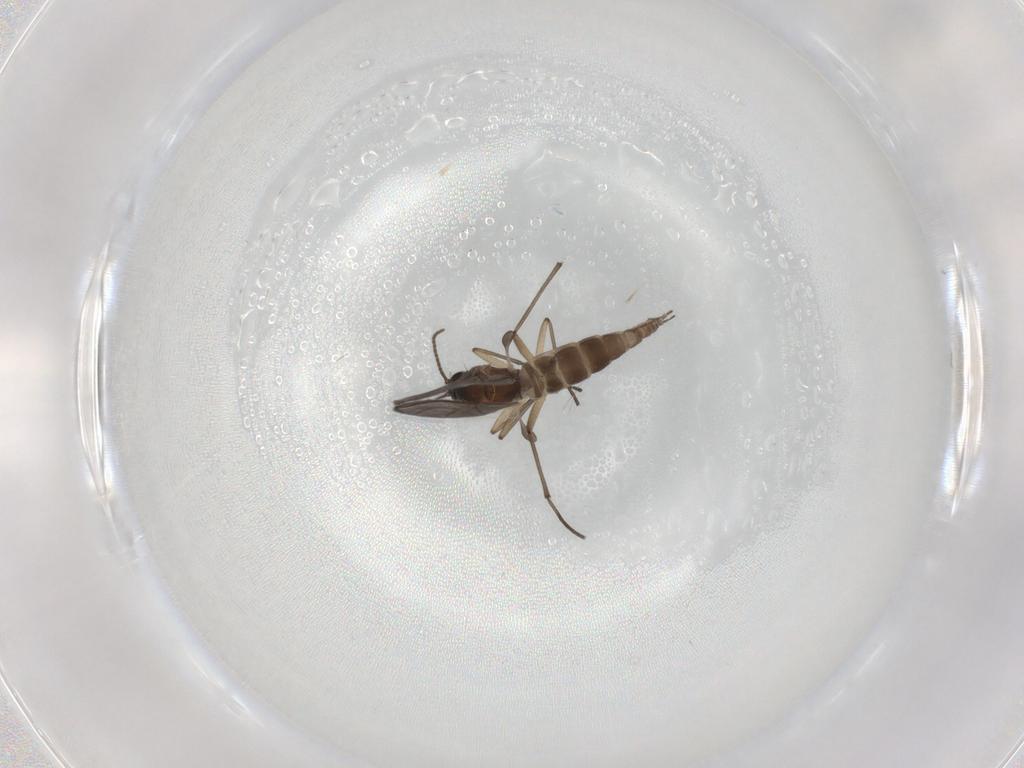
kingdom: Animalia
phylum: Arthropoda
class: Insecta
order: Diptera
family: Sciaridae
